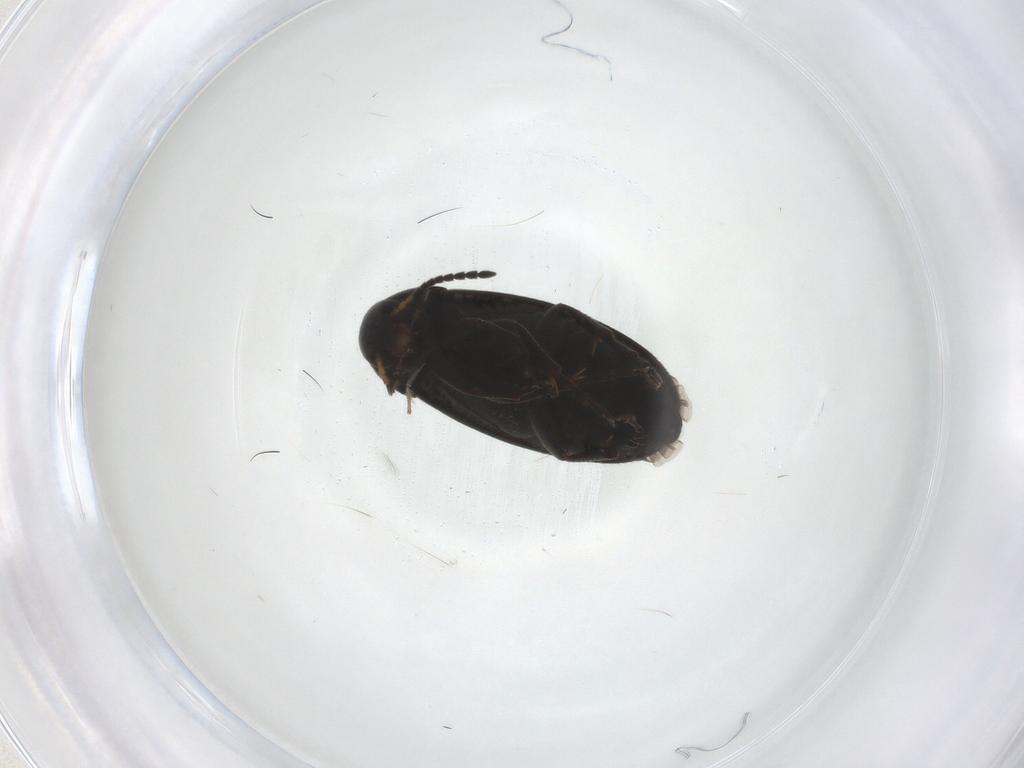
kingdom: Animalia
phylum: Arthropoda
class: Insecta
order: Coleoptera
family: Scraptiidae
